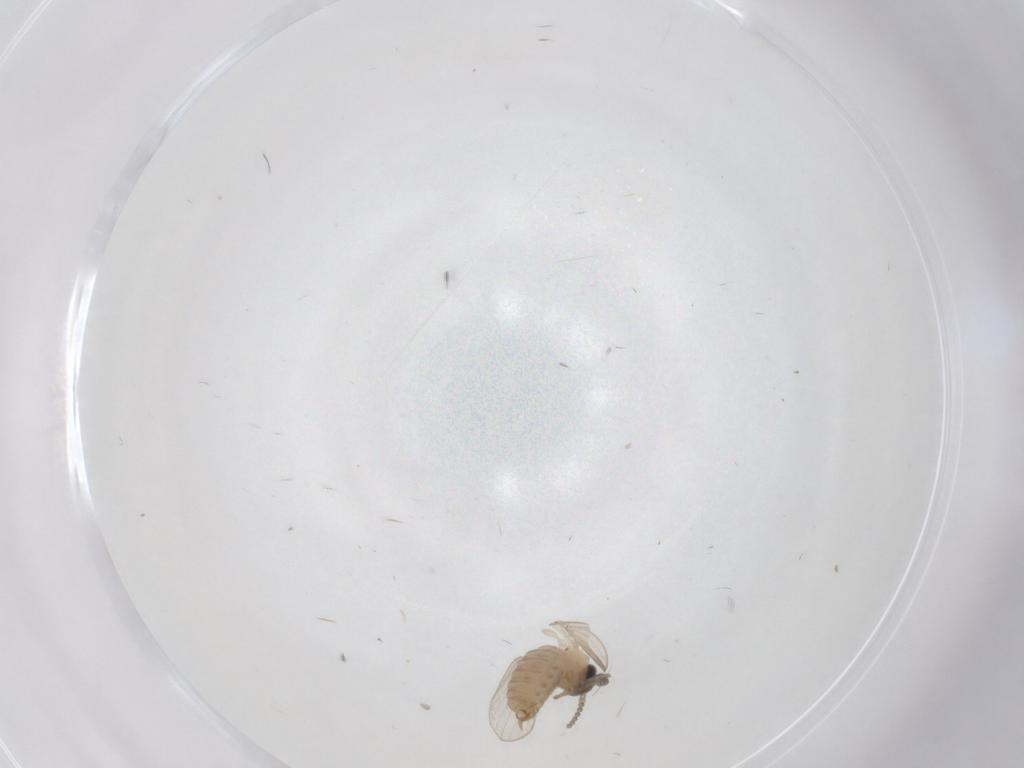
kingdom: Animalia
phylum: Arthropoda
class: Insecta
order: Diptera
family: Psychodidae
